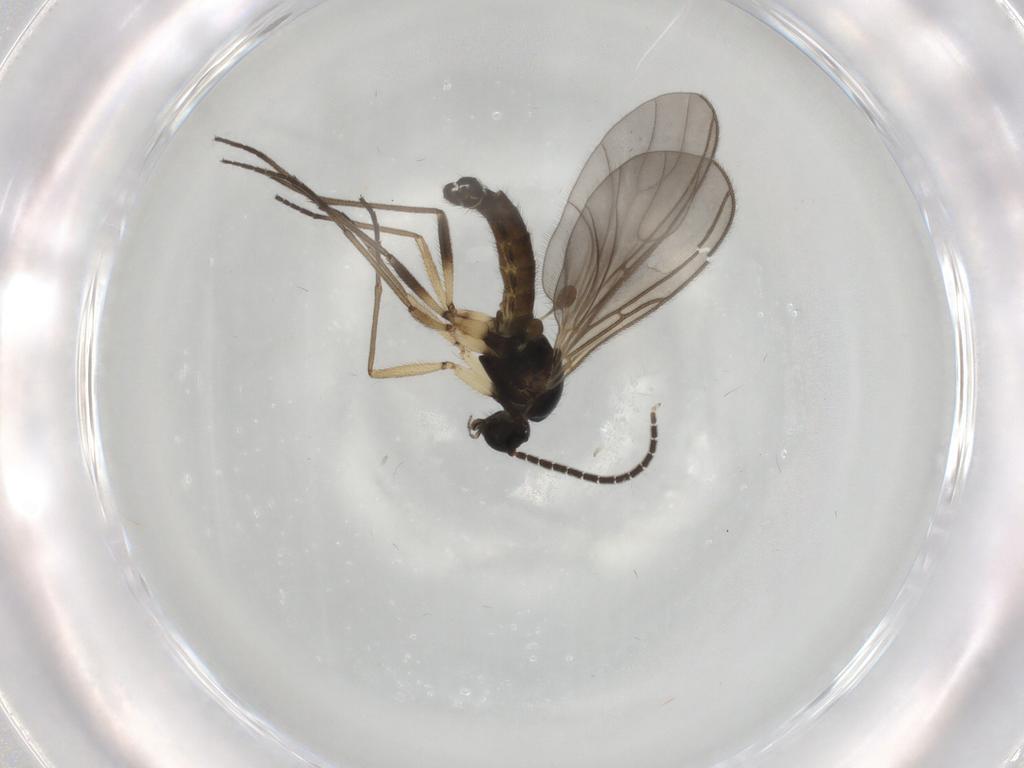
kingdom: Animalia
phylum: Arthropoda
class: Insecta
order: Diptera
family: Sciaridae
